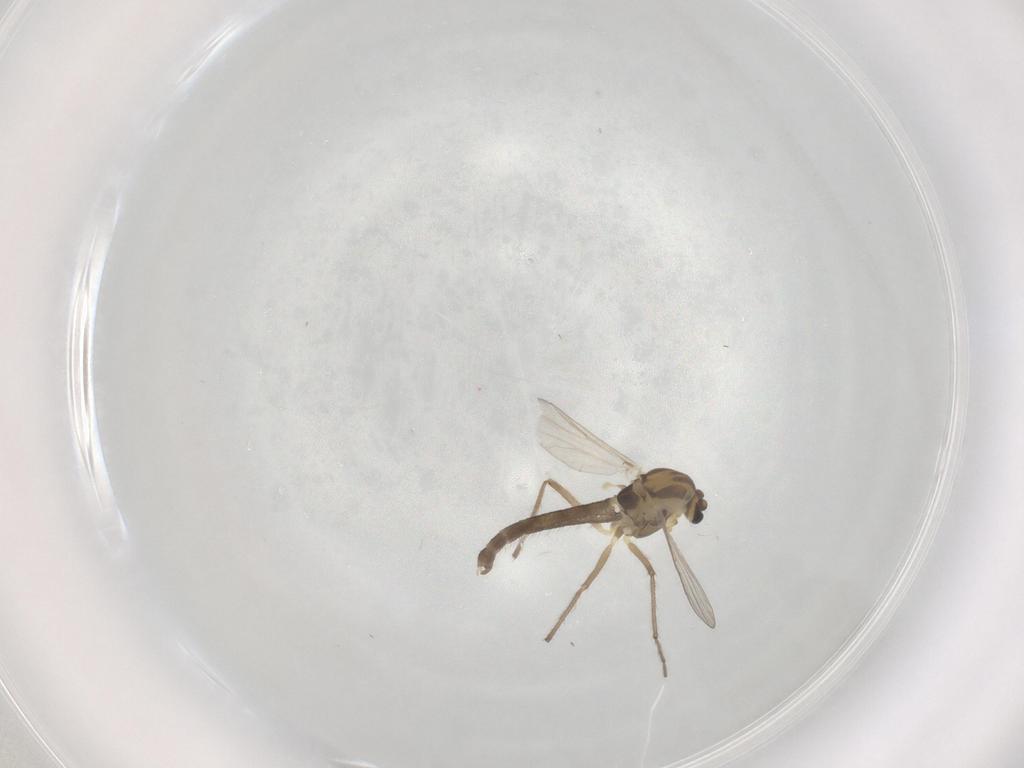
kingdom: Animalia
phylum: Arthropoda
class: Insecta
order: Diptera
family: Chironomidae
